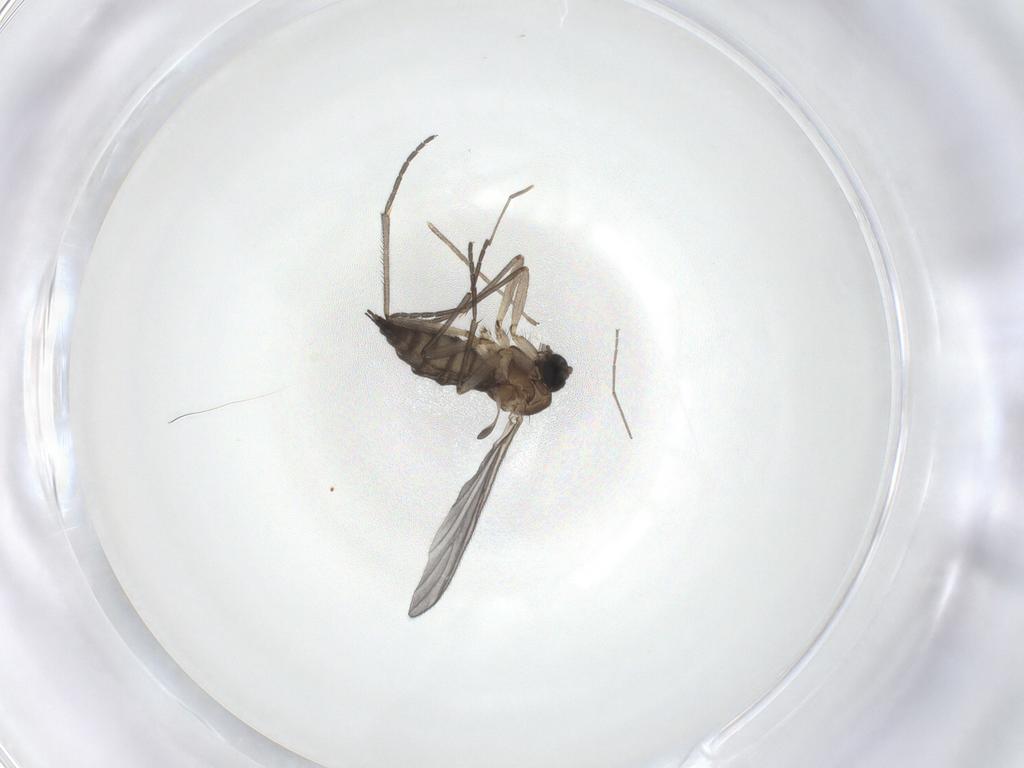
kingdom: Animalia
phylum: Arthropoda
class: Insecta
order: Diptera
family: Sciaridae
